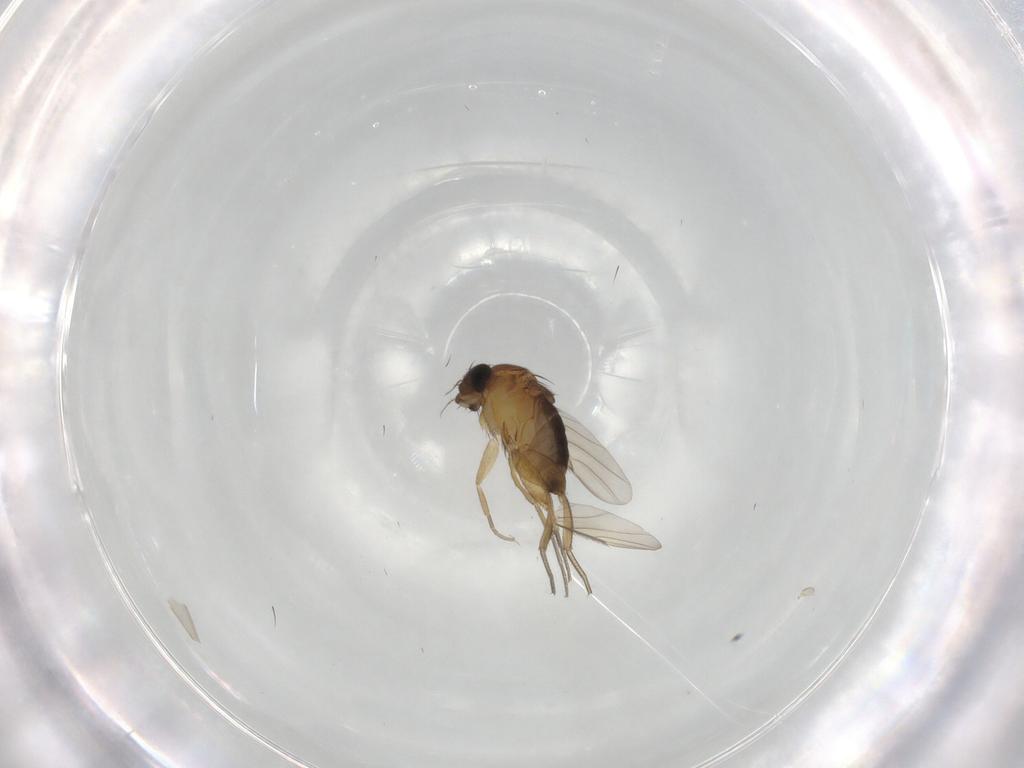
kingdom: Animalia
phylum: Arthropoda
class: Insecta
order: Diptera
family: Phoridae
